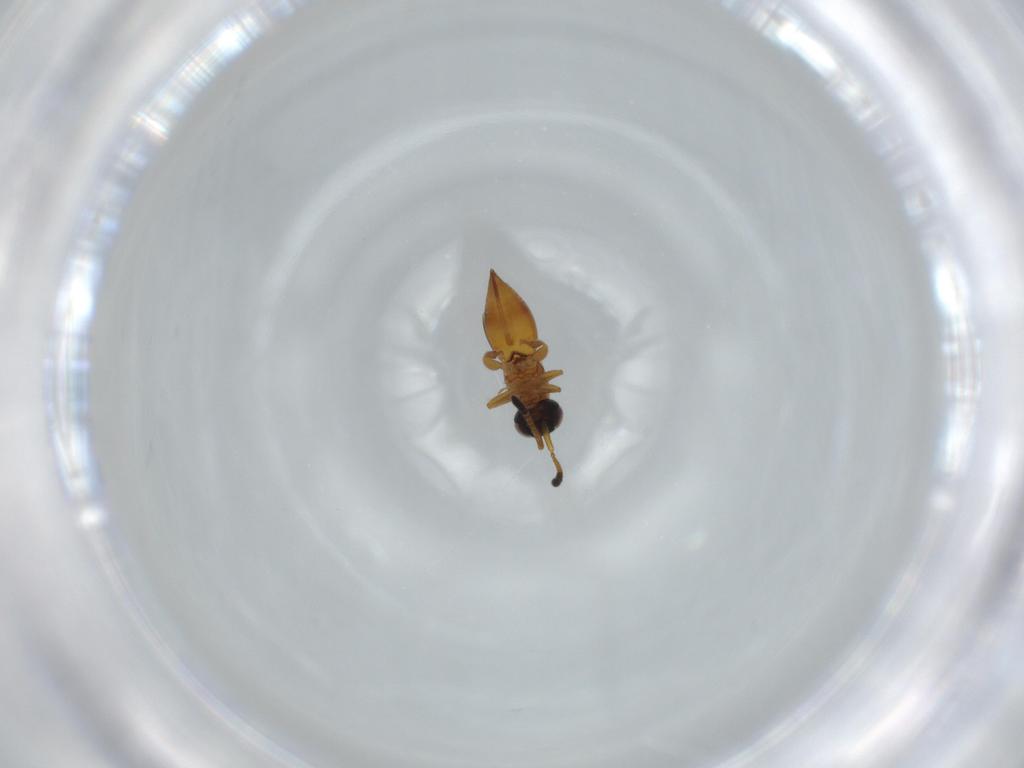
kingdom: Animalia
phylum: Arthropoda
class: Insecta
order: Hymenoptera
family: Ceraphronidae
